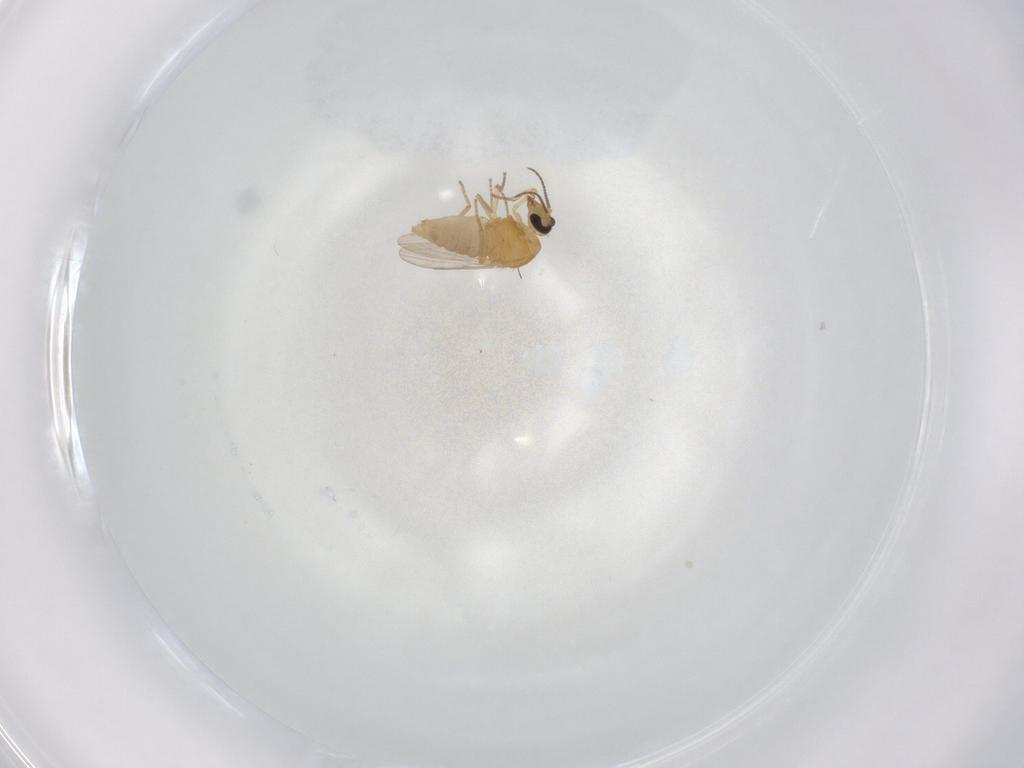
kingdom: Animalia
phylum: Arthropoda
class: Insecta
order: Diptera
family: Ceratopogonidae
